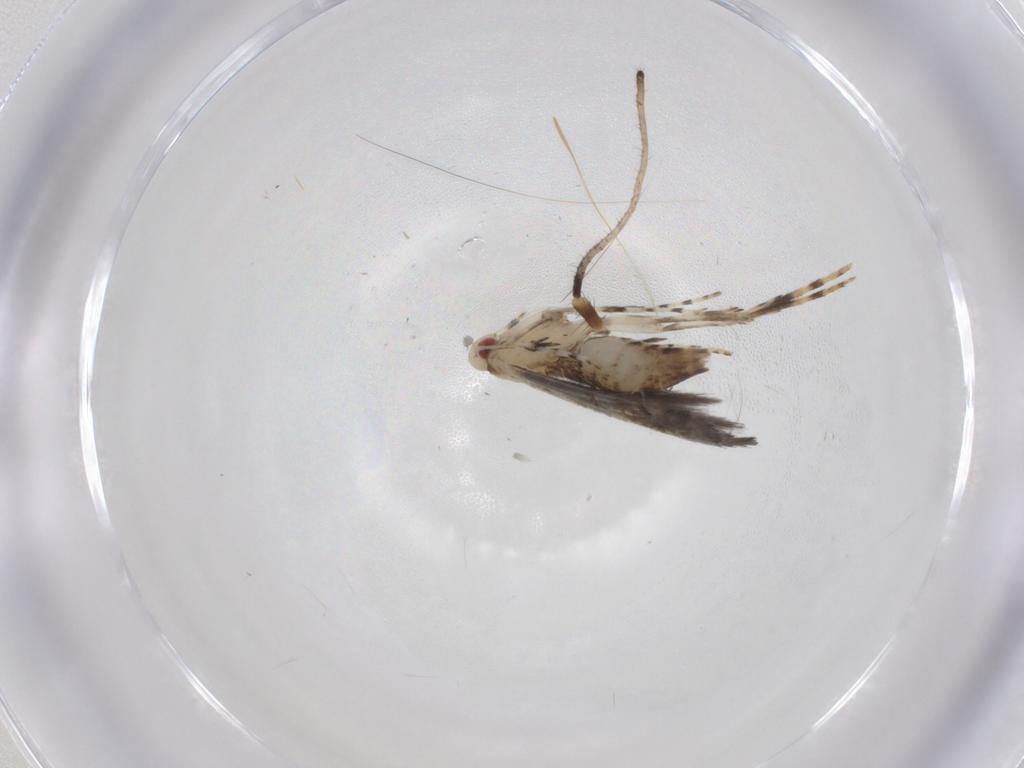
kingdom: Animalia
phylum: Arthropoda
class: Insecta
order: Lepidoptera
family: Gracillariidae
